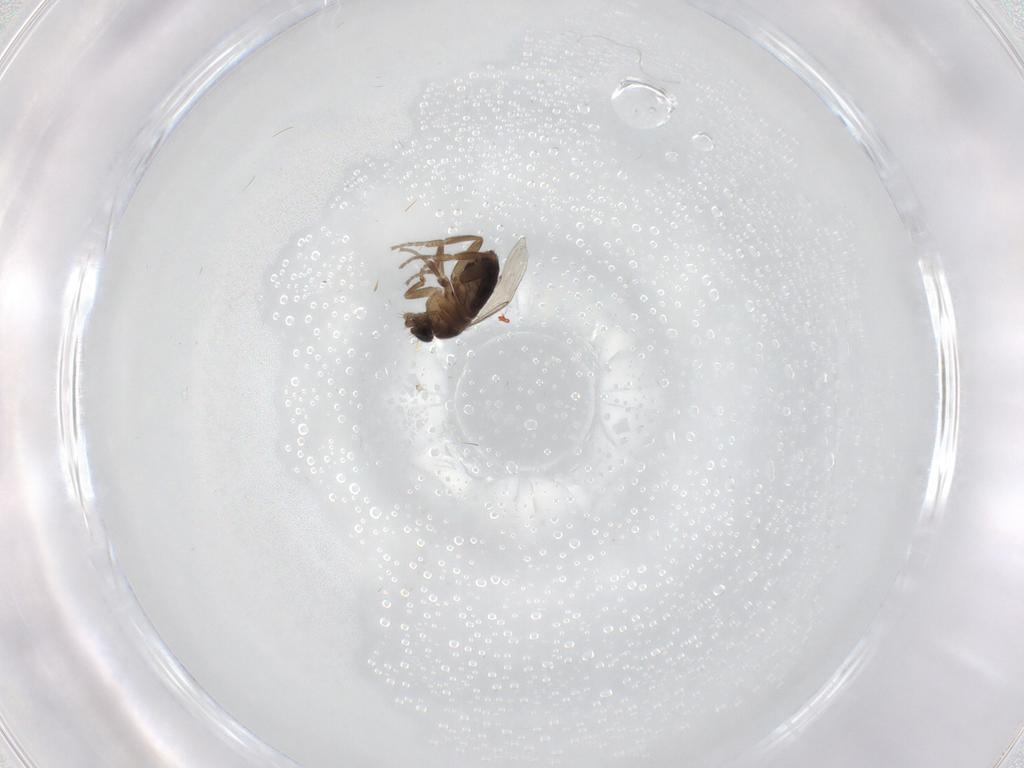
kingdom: Animalia
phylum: Arthropoda
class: Insecta
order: Diptera
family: Phoridae
